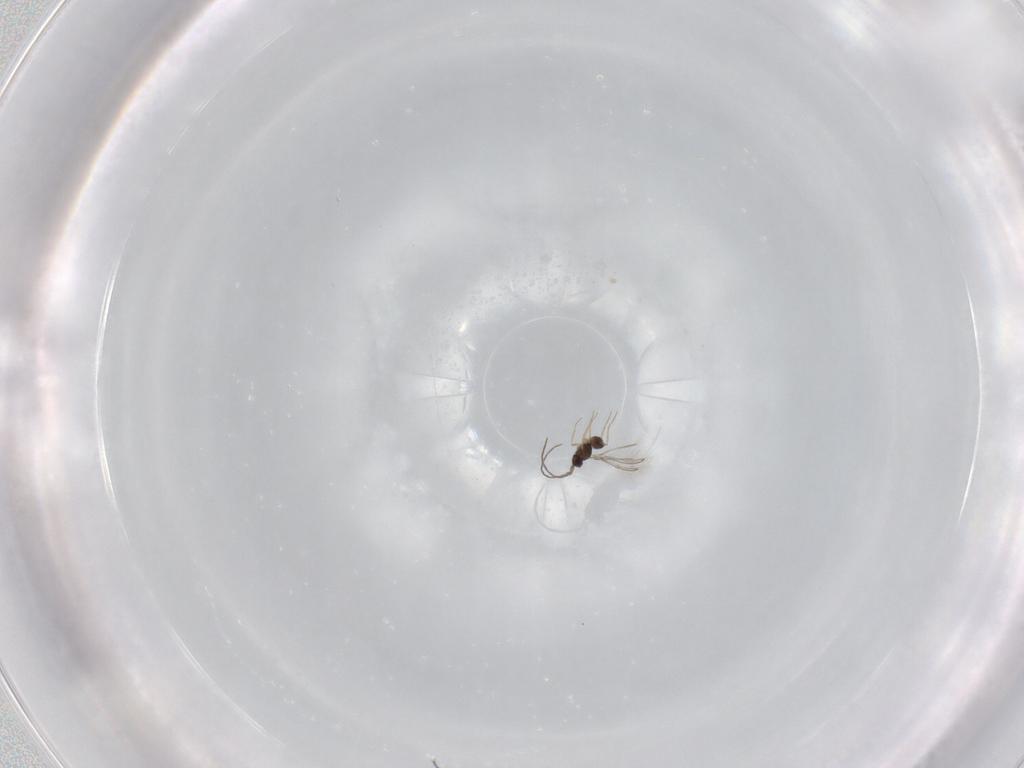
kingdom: Animalia
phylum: Arthropoda
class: Insecta
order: Hymenoptera
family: Mymaridae
